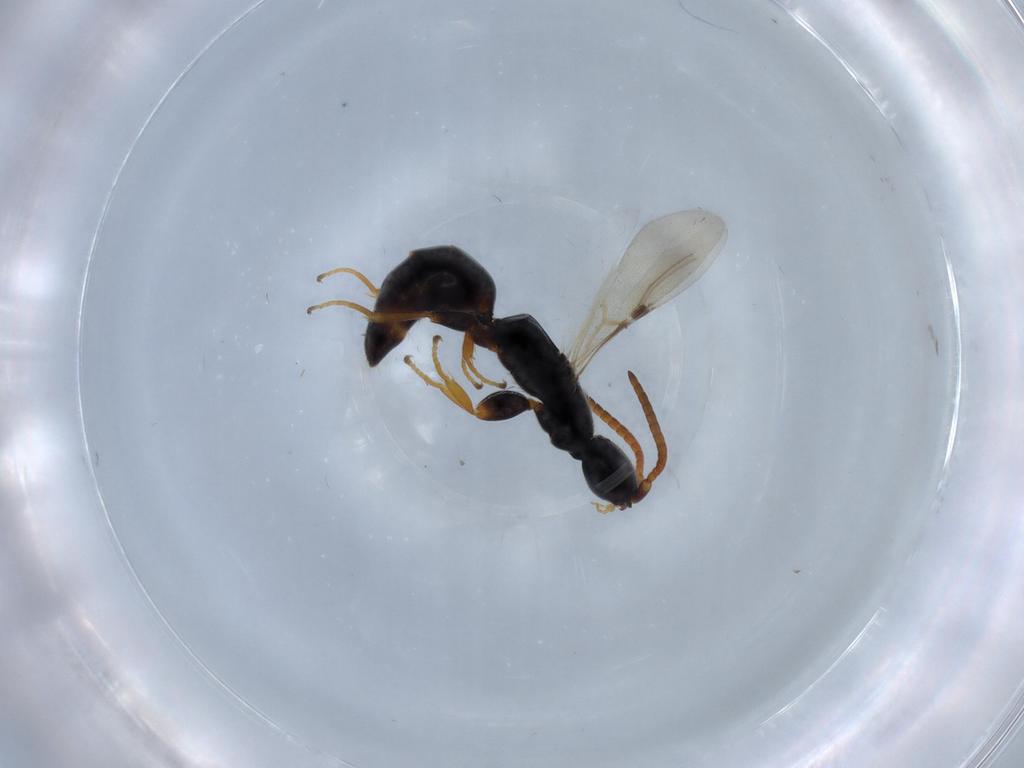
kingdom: Animalia
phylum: Arthropoda
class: Insecta
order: Hymenoptera
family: Bethylidae
